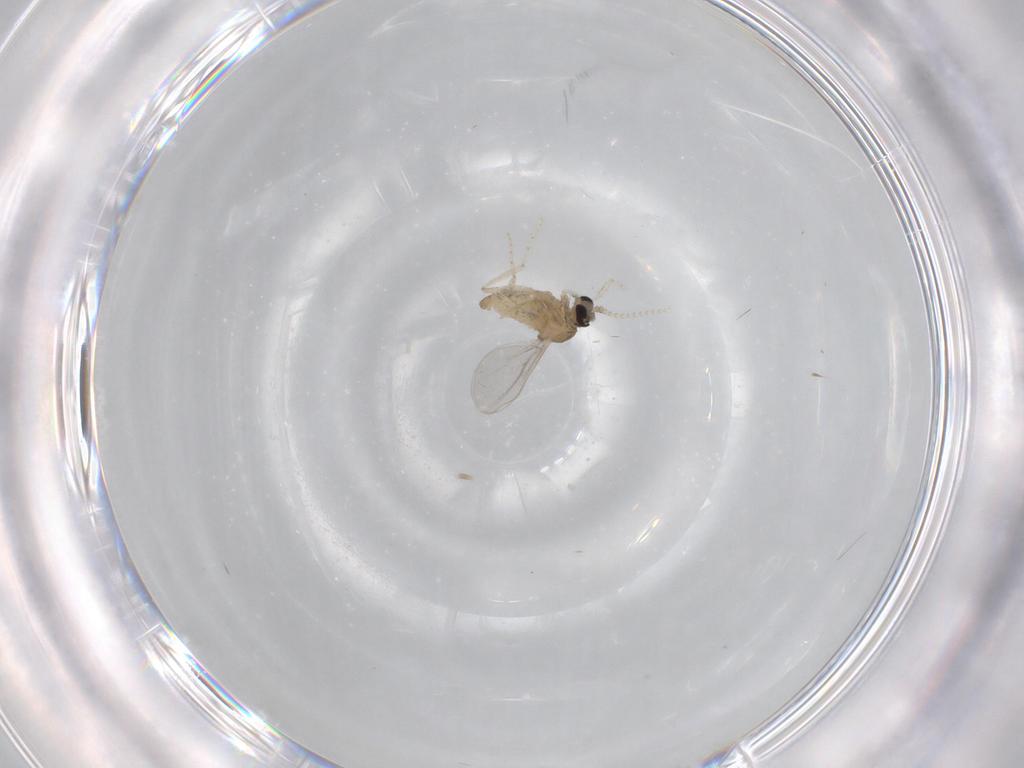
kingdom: Animalia
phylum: Arthropoda
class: Insecta
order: Diptera
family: Cecidomyiidae
